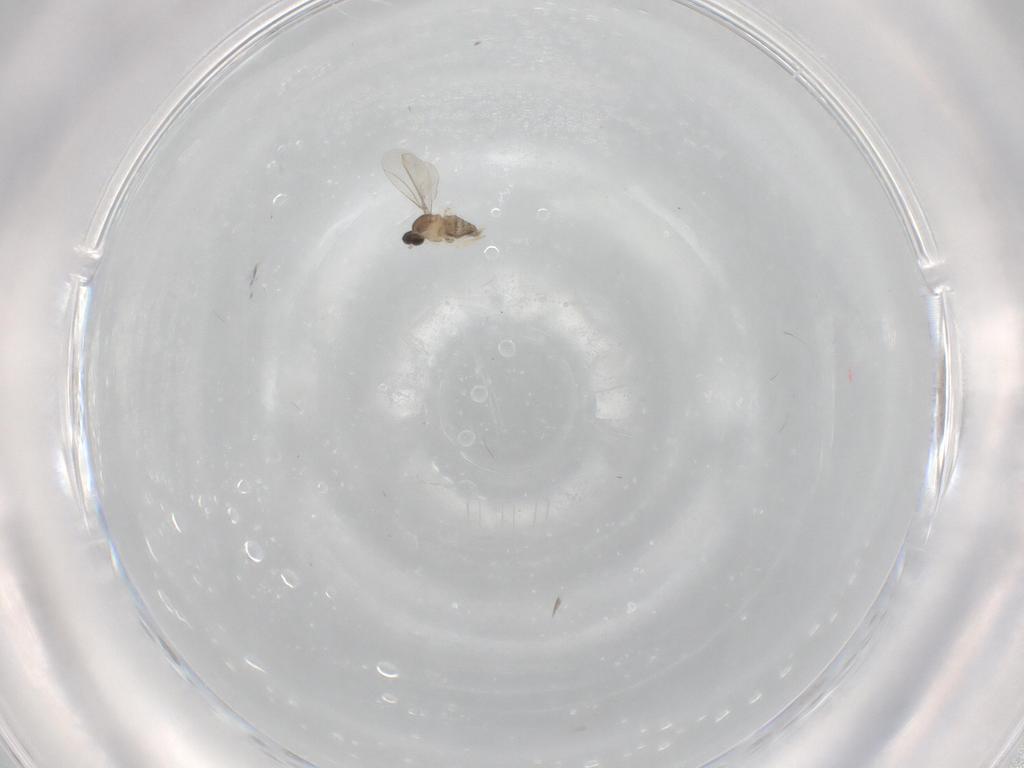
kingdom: Animalia
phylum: Arthropoda
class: Insecta
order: Diptera
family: Cecidomyiidae
